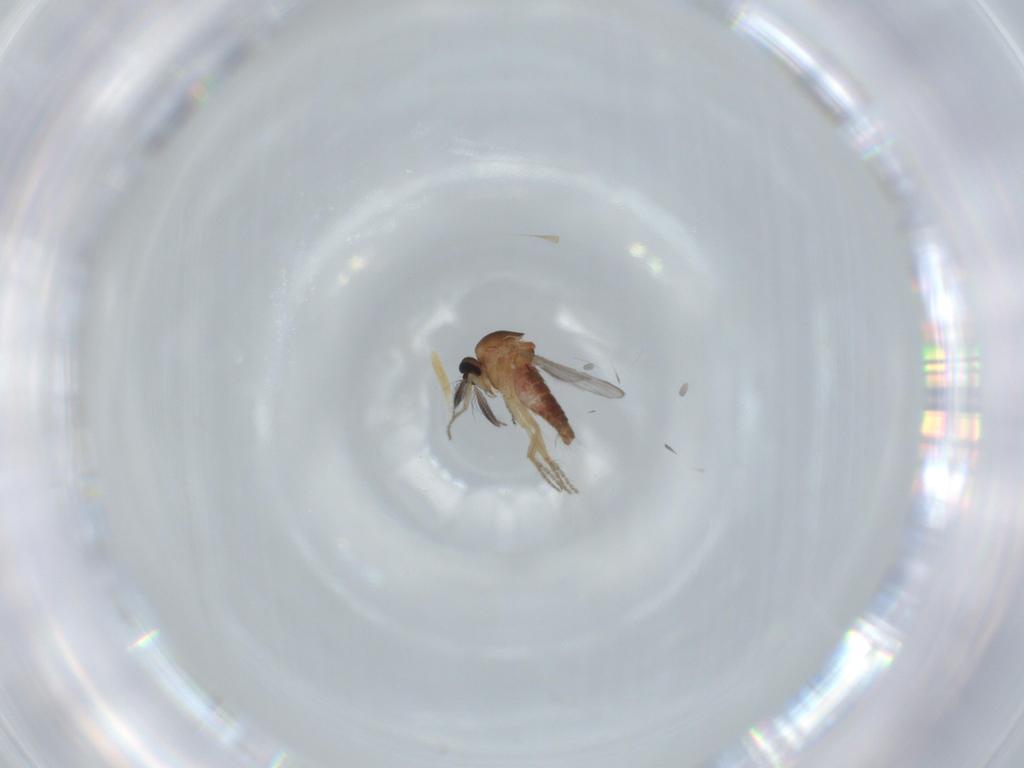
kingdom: Animalia
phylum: Arthropoda
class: Insecta
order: Diptera
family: Ceratopogonidae
